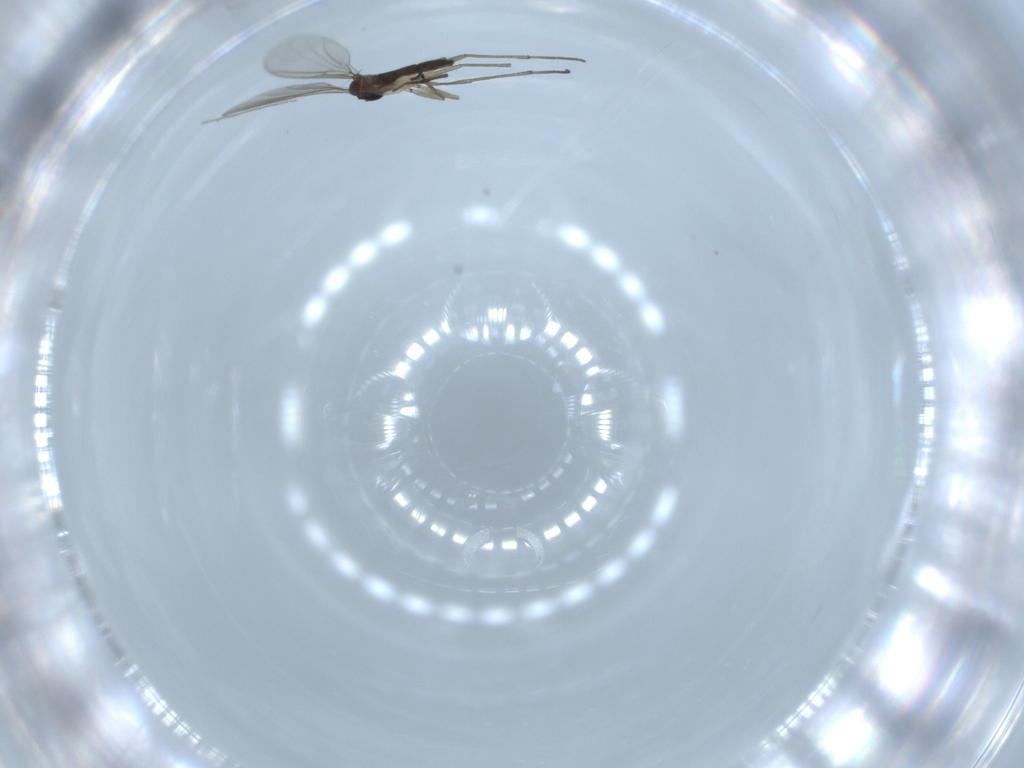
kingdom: Animalia
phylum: Arthropoda
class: Insecta
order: Diptera
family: Sciaridae
